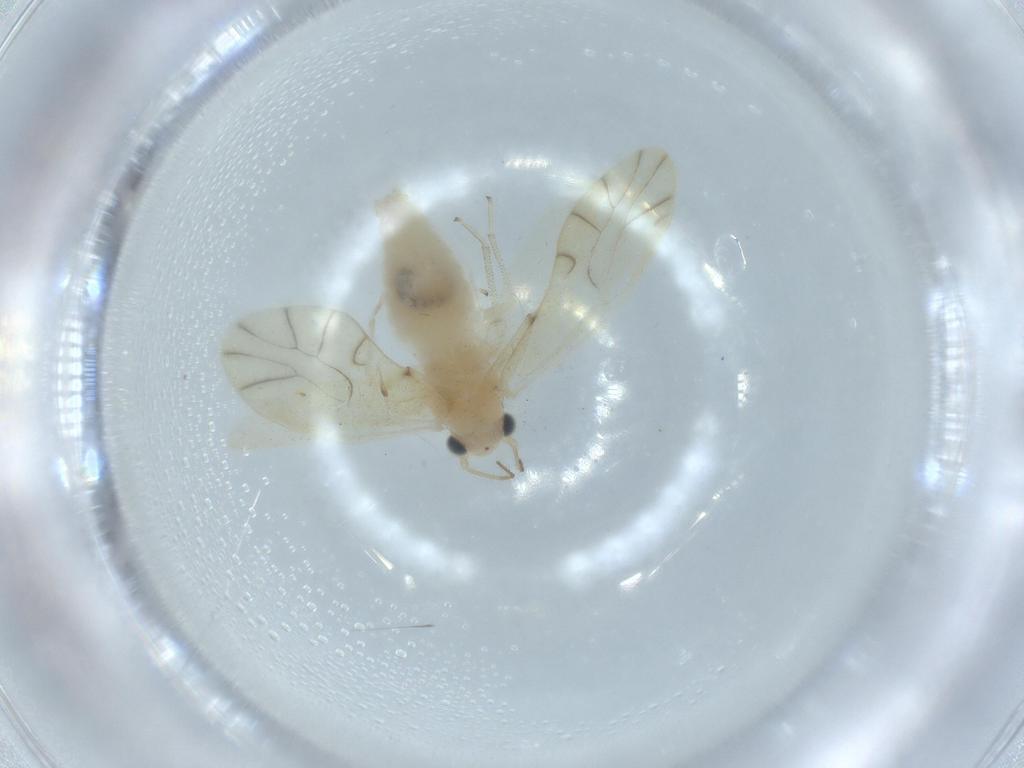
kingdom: Animalia
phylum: Arthropoda
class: Insecta
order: Psocodea
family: Caeciliusidae
